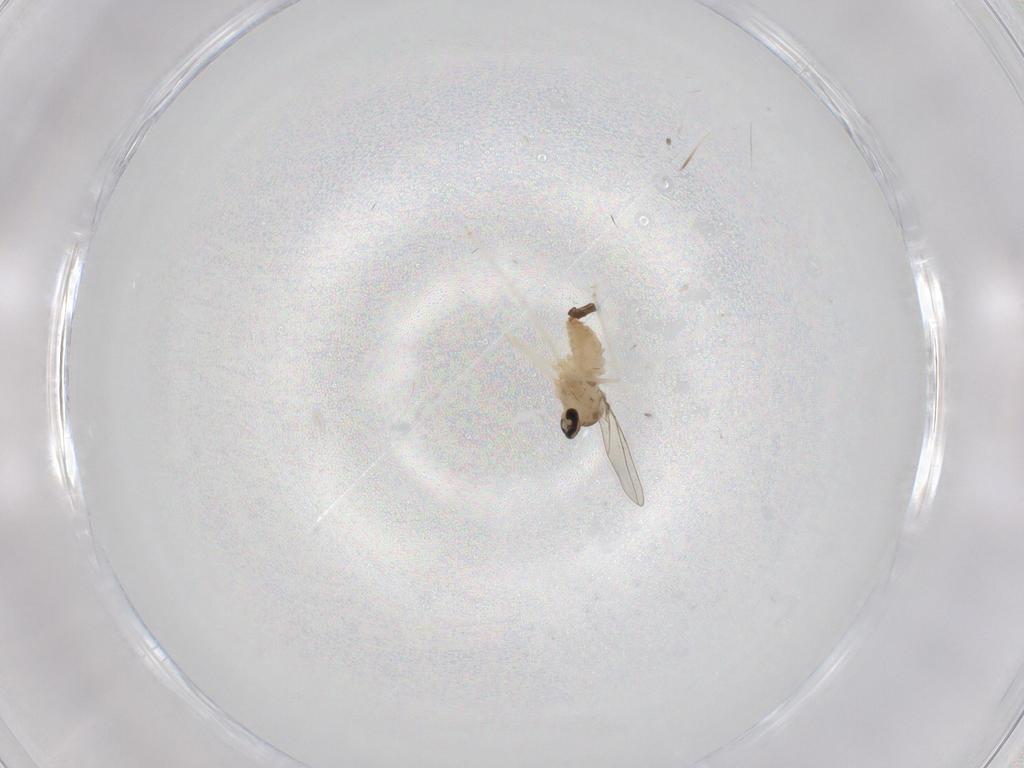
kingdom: Animalia
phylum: Arthropoda
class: Insecta
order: Diptera
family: Cecidomyiidae
